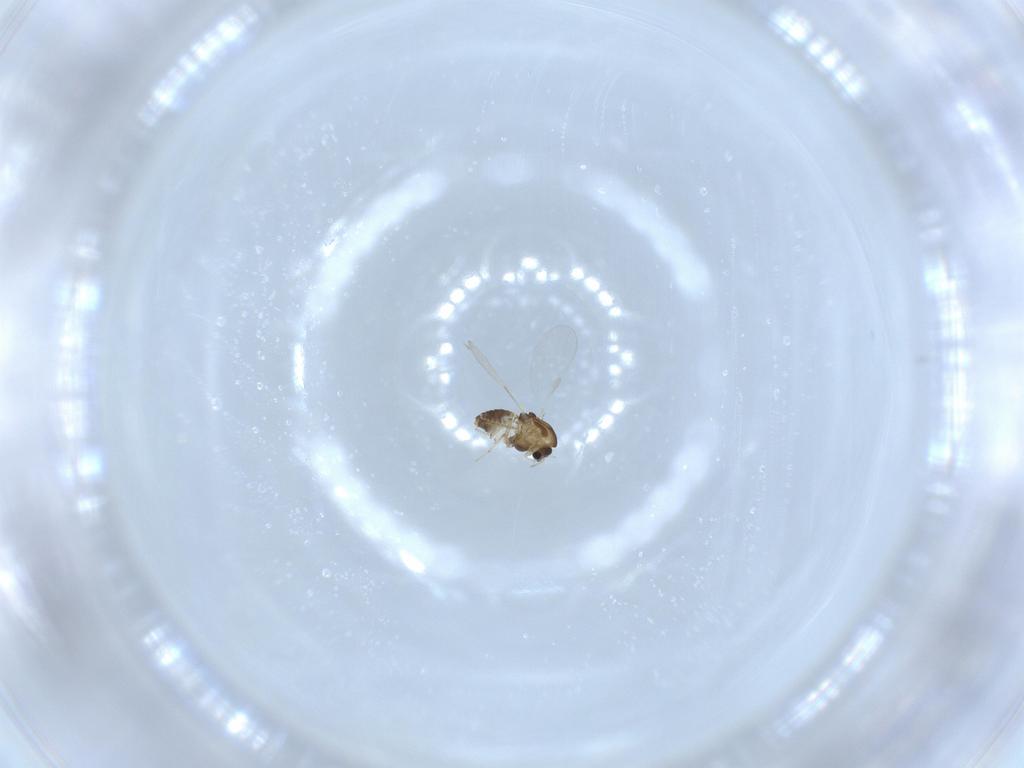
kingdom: Animalia
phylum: Arthropoda
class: Insecta
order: Diptera
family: Chironomidae
